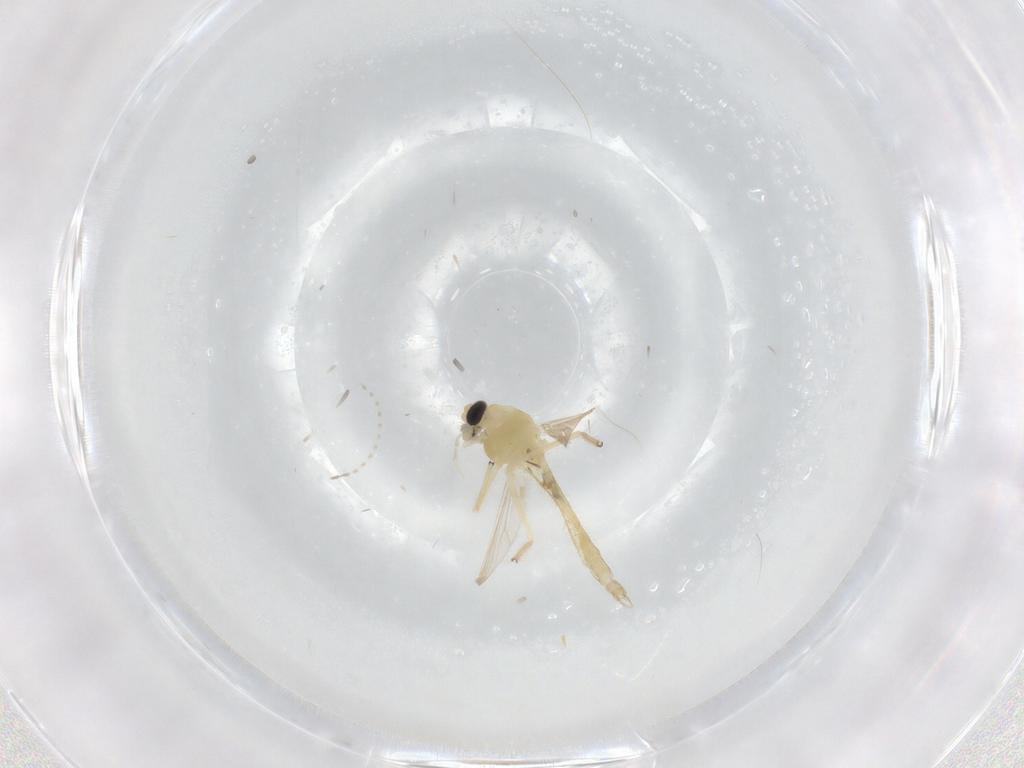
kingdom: Animalia
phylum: Arthropoda
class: Insecta
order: Diptera
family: Chironomidae
